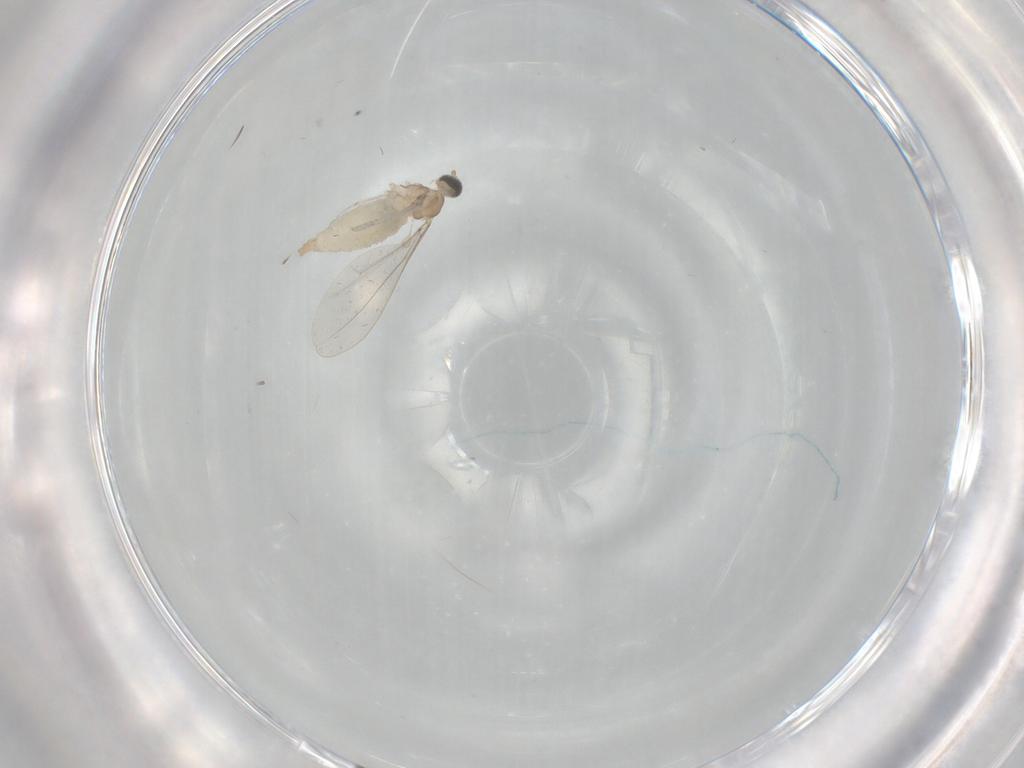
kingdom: Animalia
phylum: Arthropoda
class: Insecta
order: Diptera
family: Cecidomyiidae
